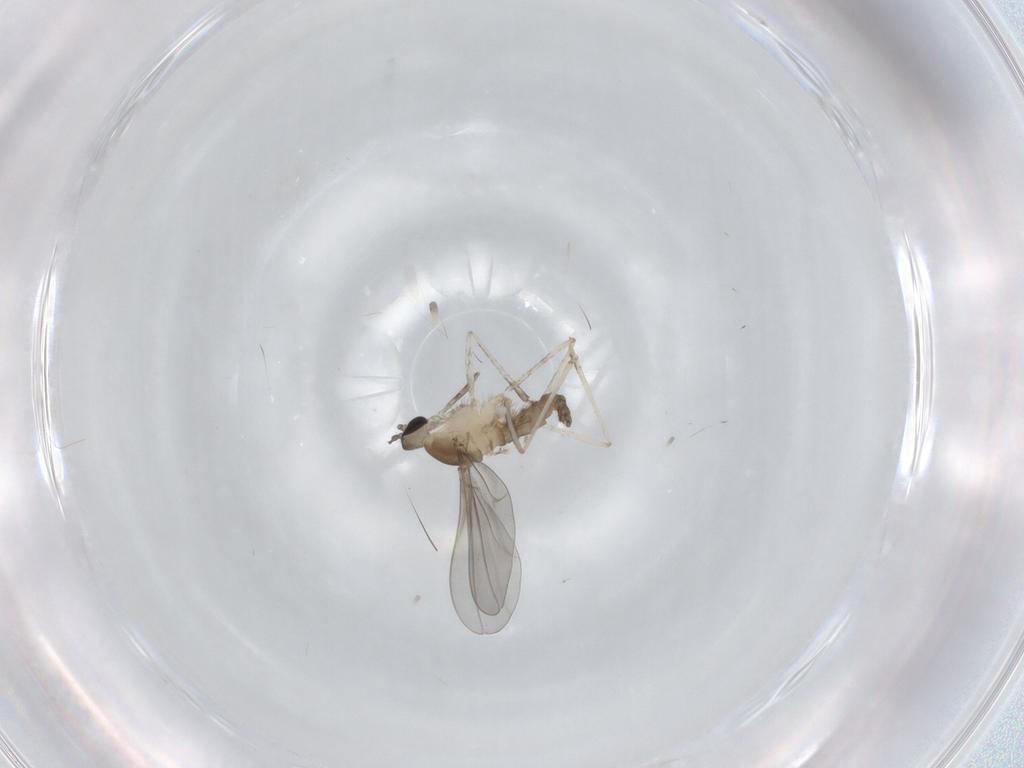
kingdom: Animalia
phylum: Arthropoda
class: Insecta
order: Diptera
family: Cecidomyiidae
